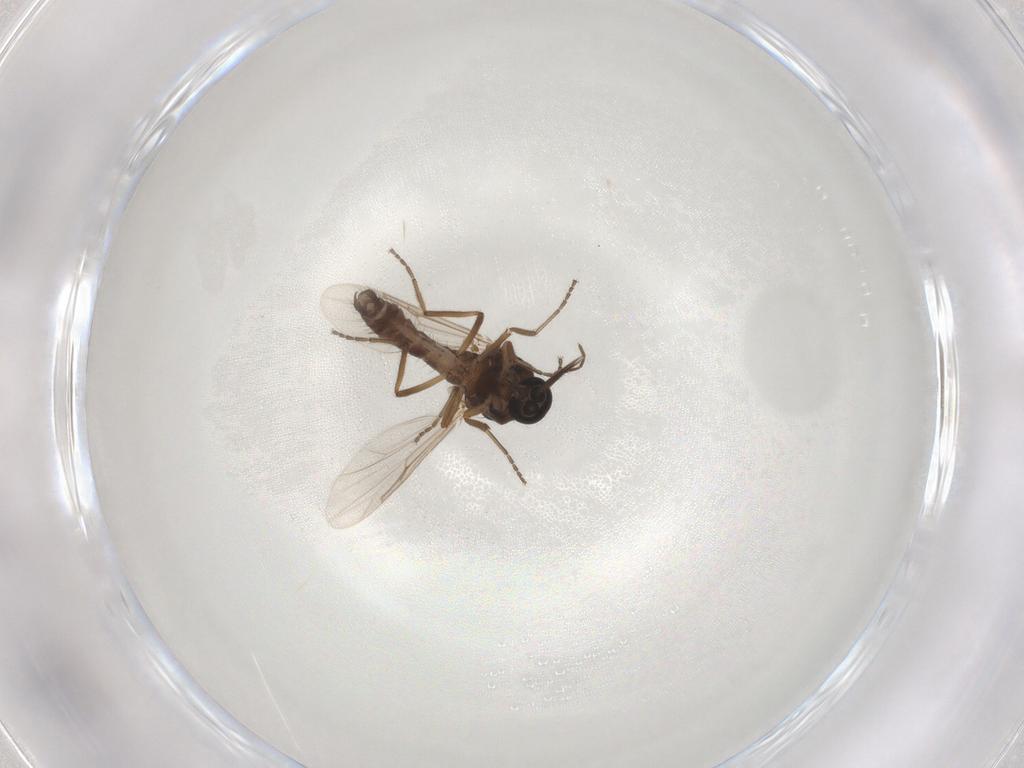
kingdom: Animalia
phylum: Arthropoda
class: Insecta
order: Diptera
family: Ceratopogonidae
